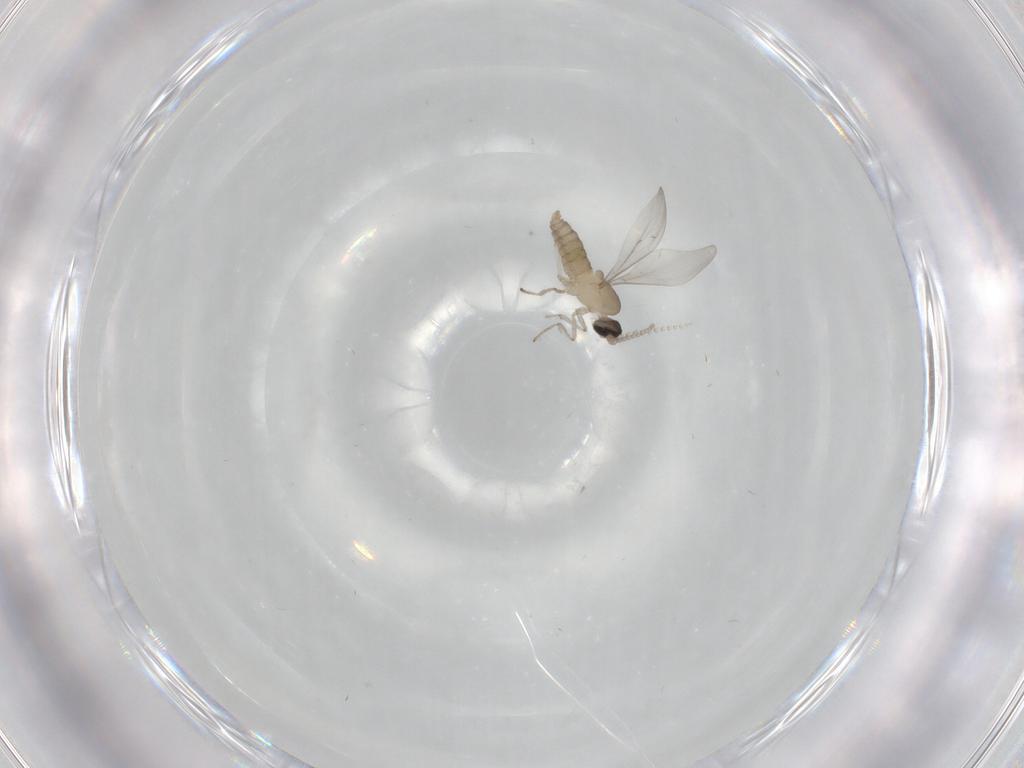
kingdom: Animalia
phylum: Arthropoda
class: Insecta
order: Diptera
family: Cecidomyiidae
